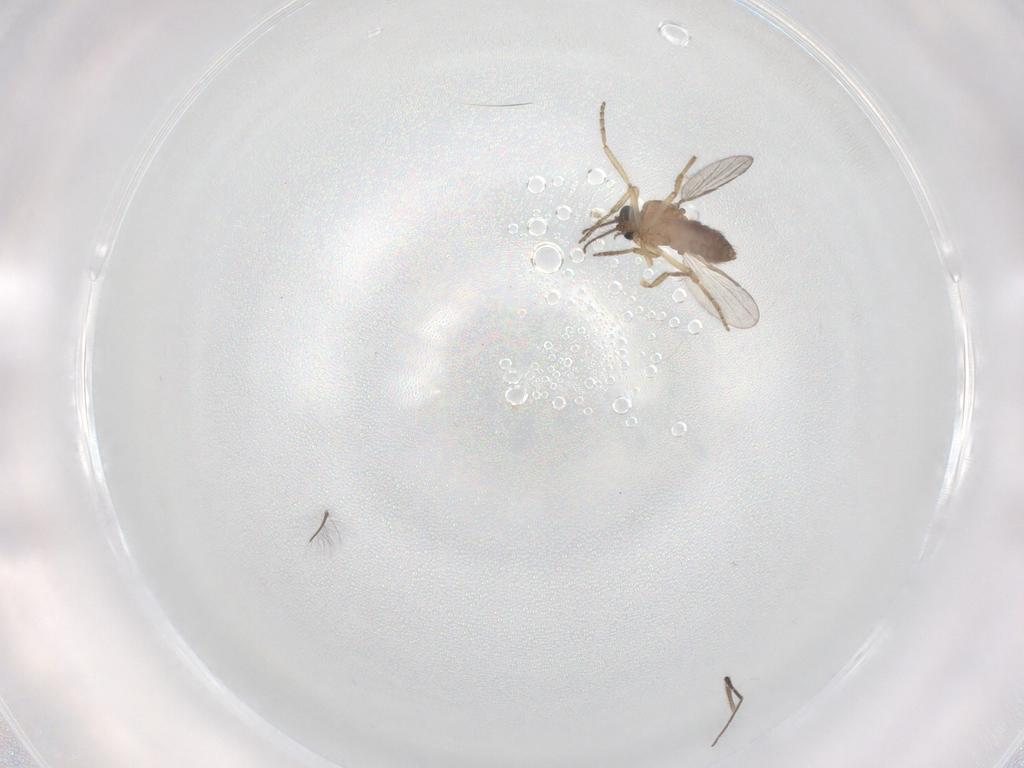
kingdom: Animalia
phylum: Arthropoda
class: Insecta
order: Diptera
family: Chironomidae
